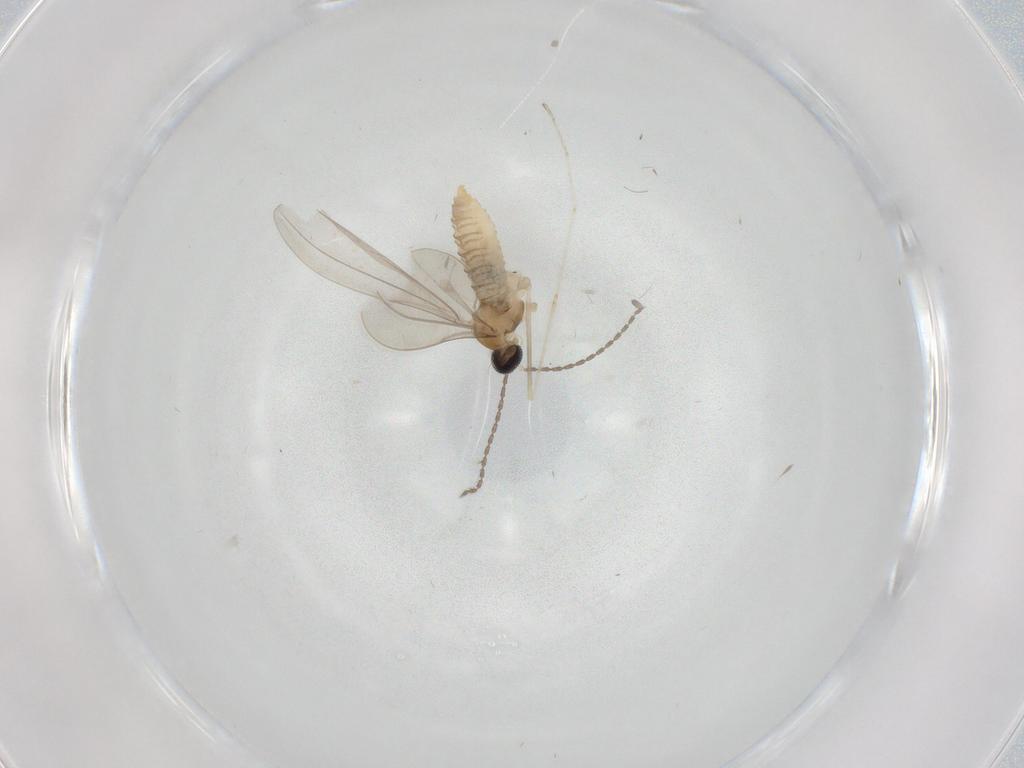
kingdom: Animalia
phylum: Arthropoda
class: Insecta
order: Diptera
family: Cecidomyiidae
